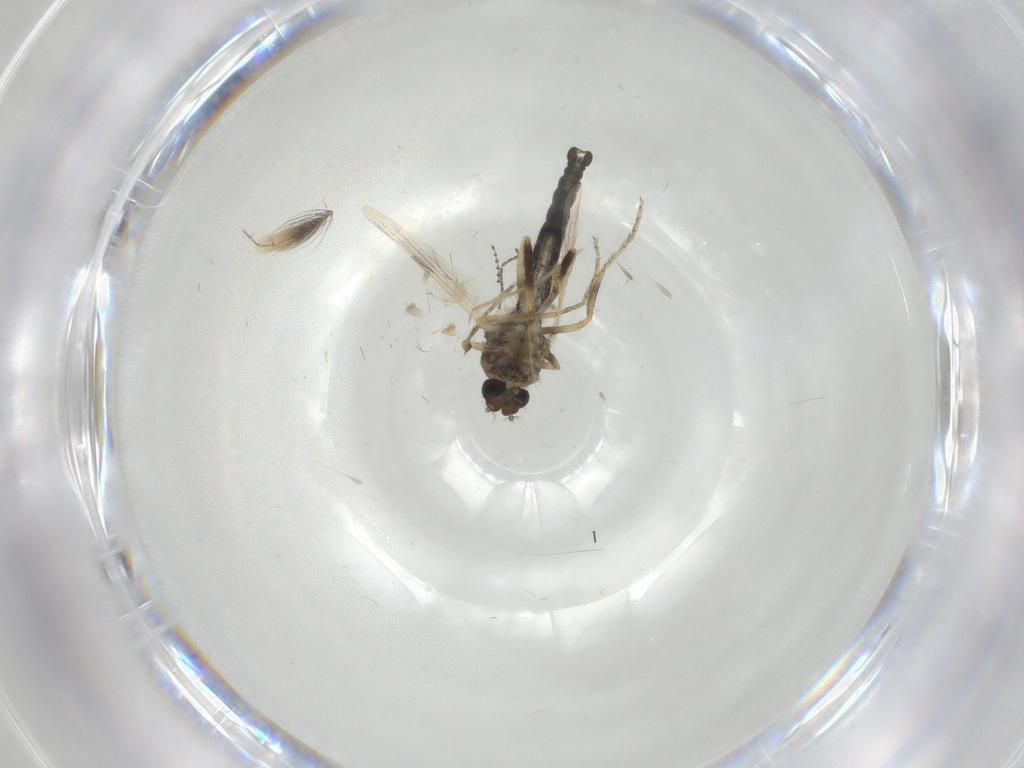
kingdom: Animalia
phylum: Arthropoda
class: Insecta
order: Diptera
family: Ceratopogonidae
